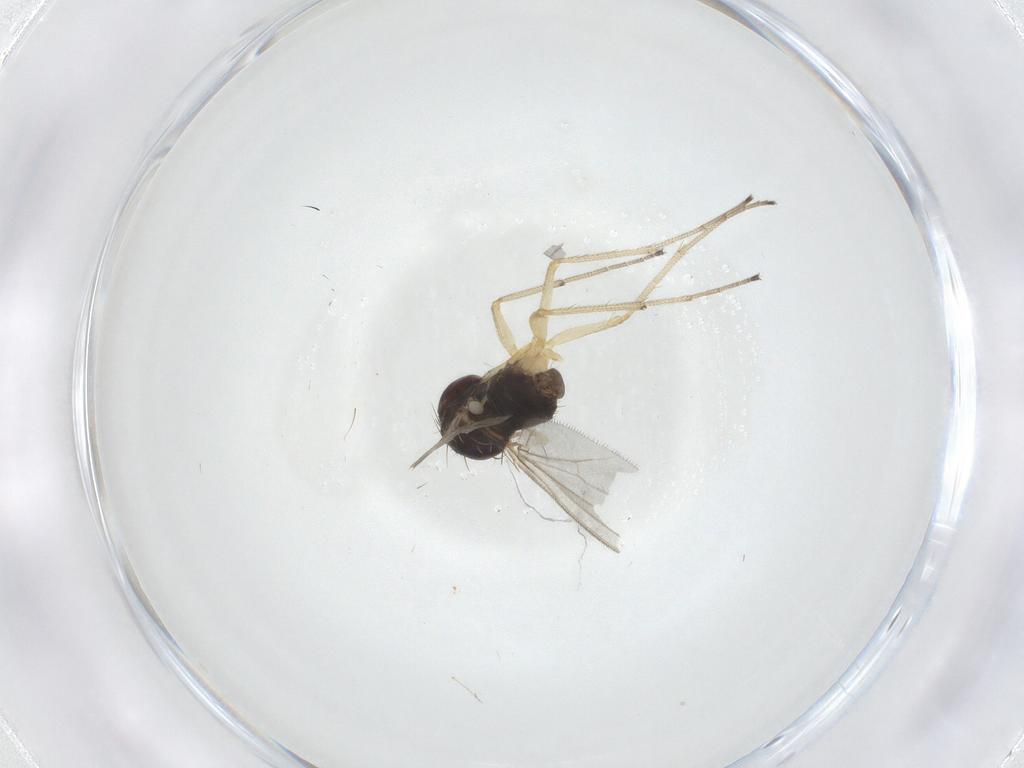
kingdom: Animalia
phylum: Arthropoda
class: Insecta
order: Diptera
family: Dolichopodidae
